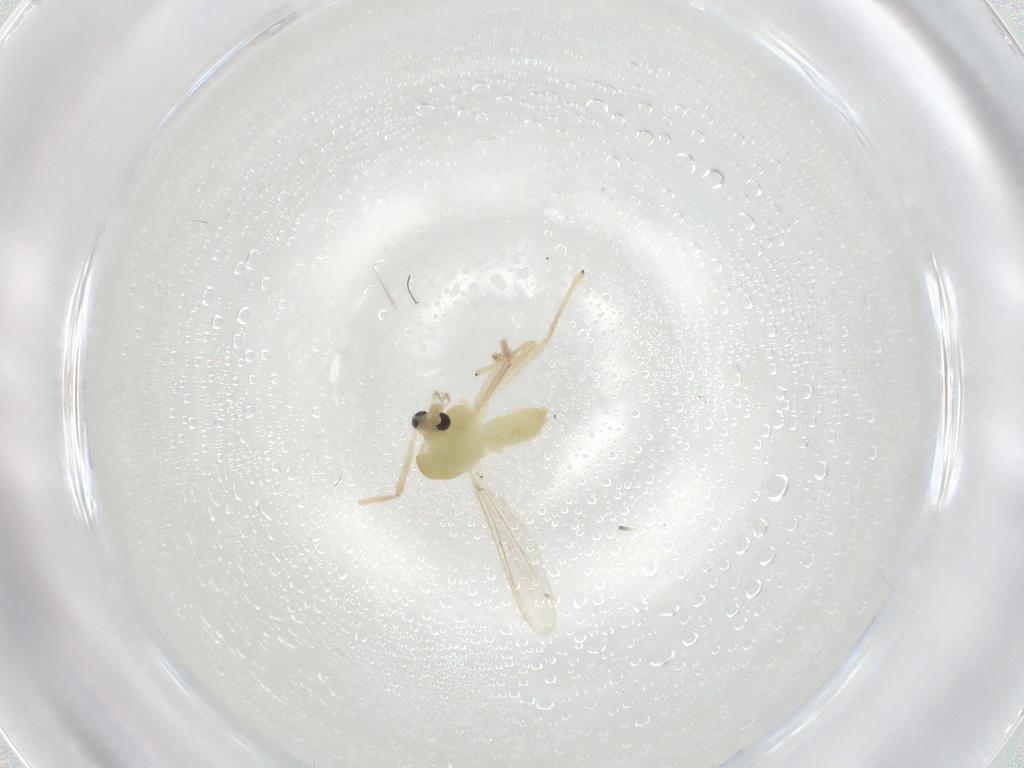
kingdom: Animalia
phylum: Arthropoda
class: Insecta
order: Diptera
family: Chironomidae
